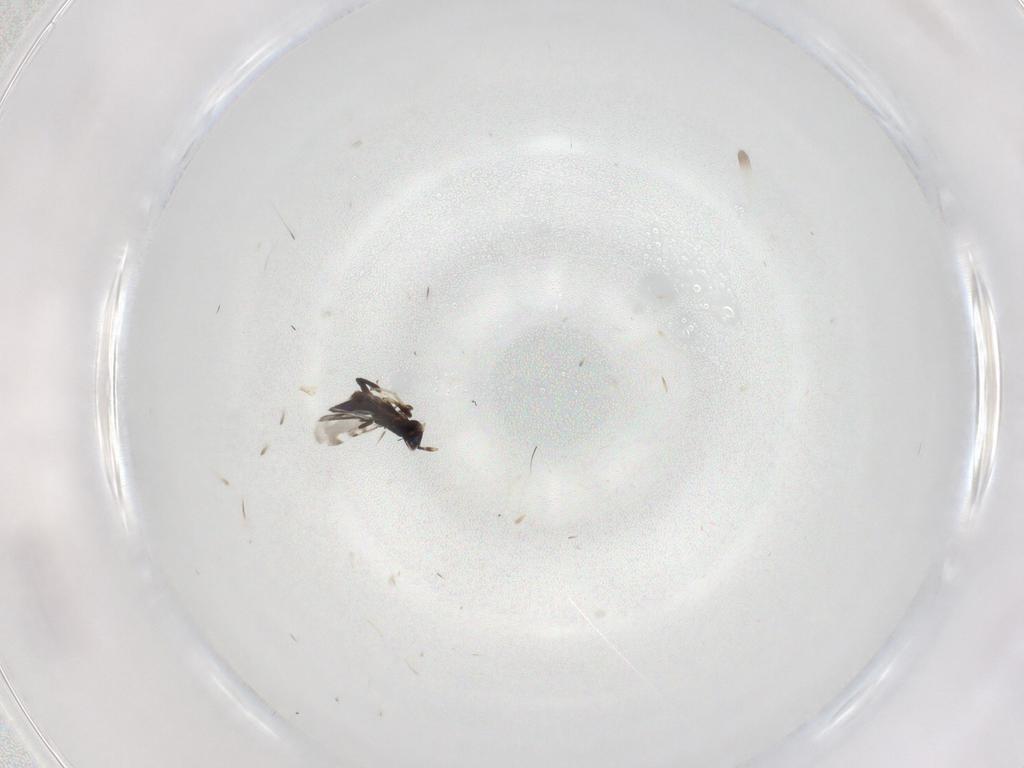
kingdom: Animalia
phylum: Arthropoda
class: Insecta
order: Hymenoptera
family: Encyrtidae
